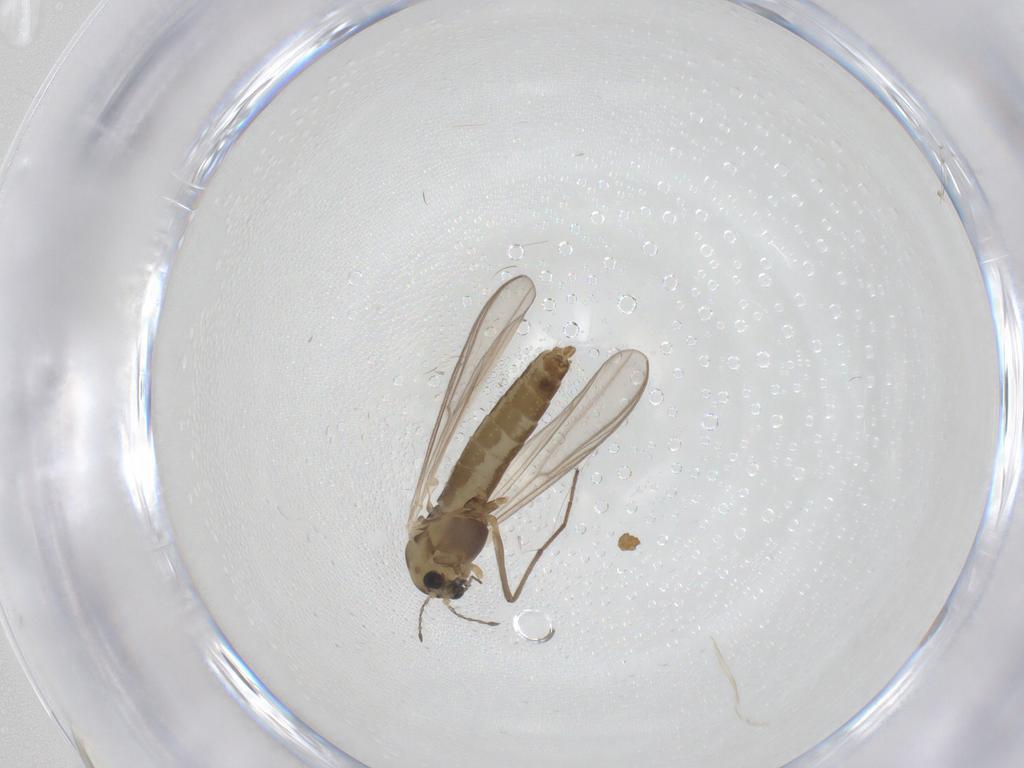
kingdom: Animalia
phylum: Arthropoda
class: Insecta
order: Diptera
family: Chironomidae
